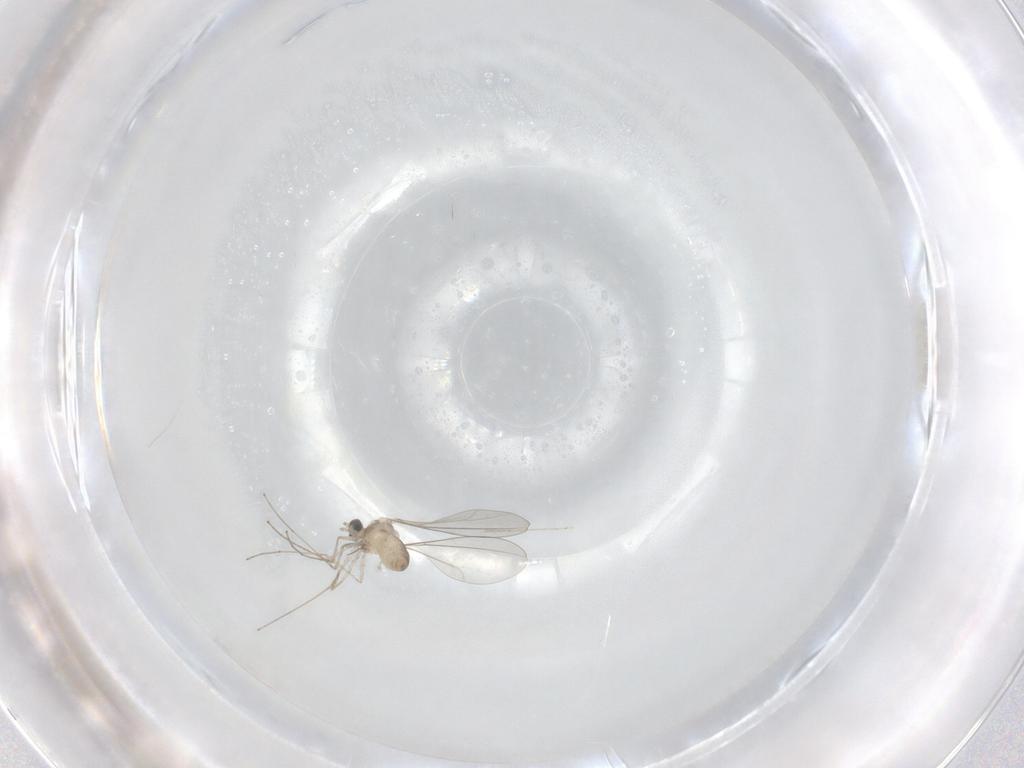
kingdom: Animalia
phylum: Arthropoda
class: Insecta
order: Diptera
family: Cecidomyiidae
